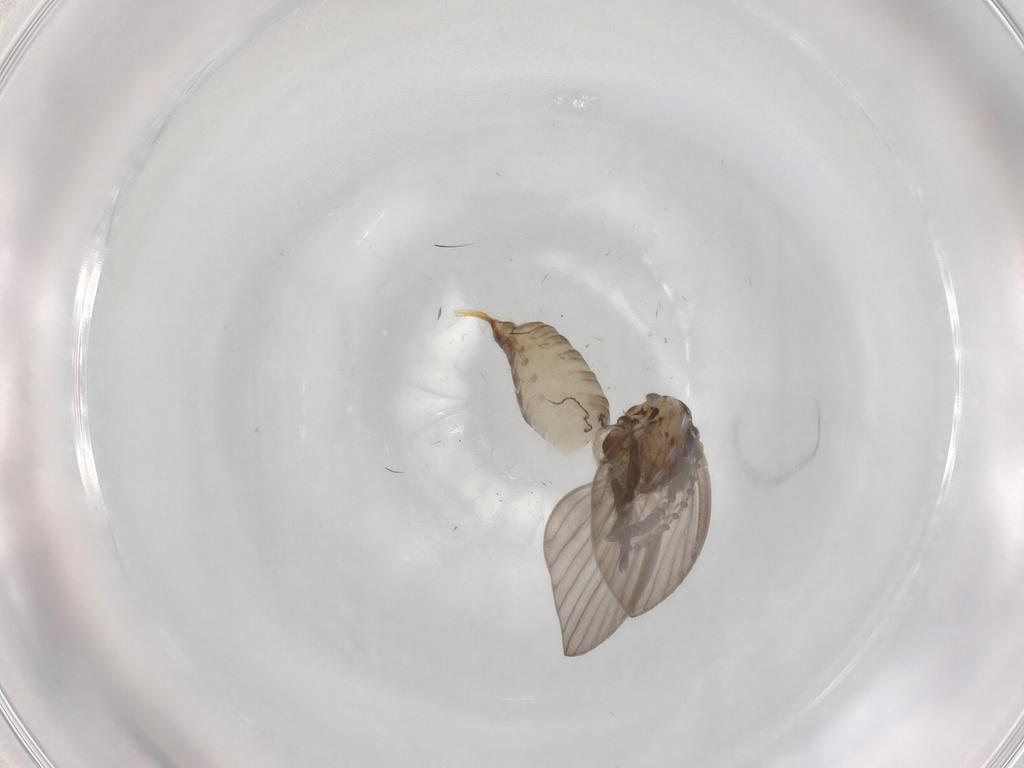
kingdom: Animalia
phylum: Arthropoda
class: Insecta
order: Diptera
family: Psychodidae
